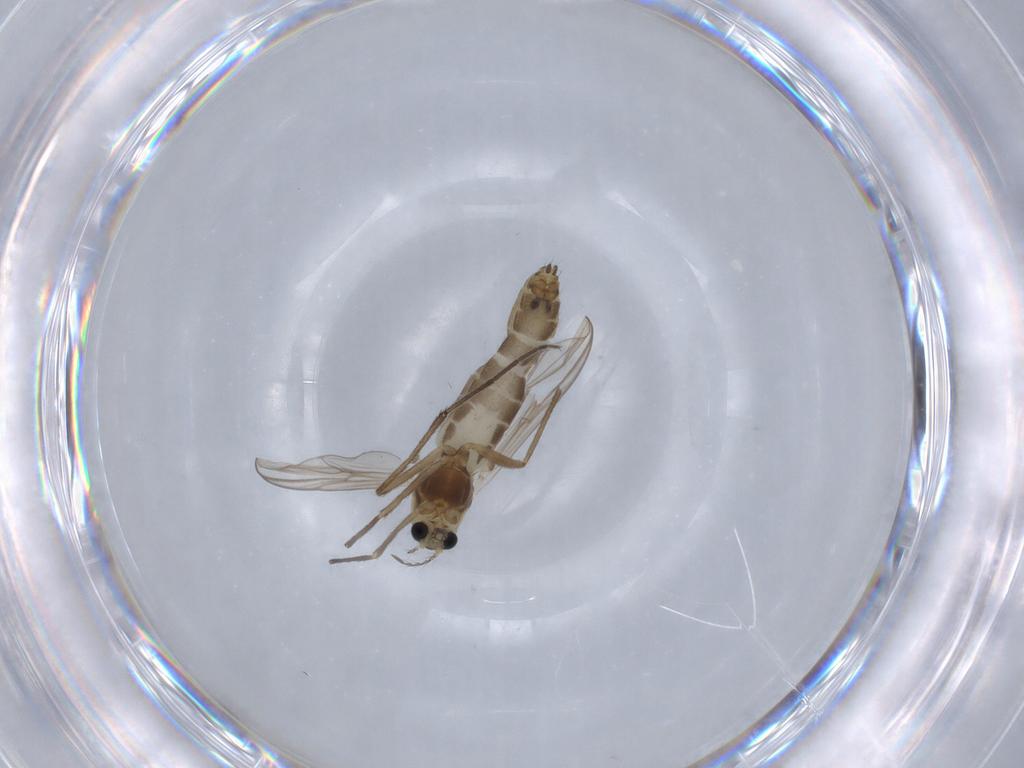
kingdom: Animalia
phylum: Arthropoda
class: Insecta
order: Diptera
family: Chironomidae
